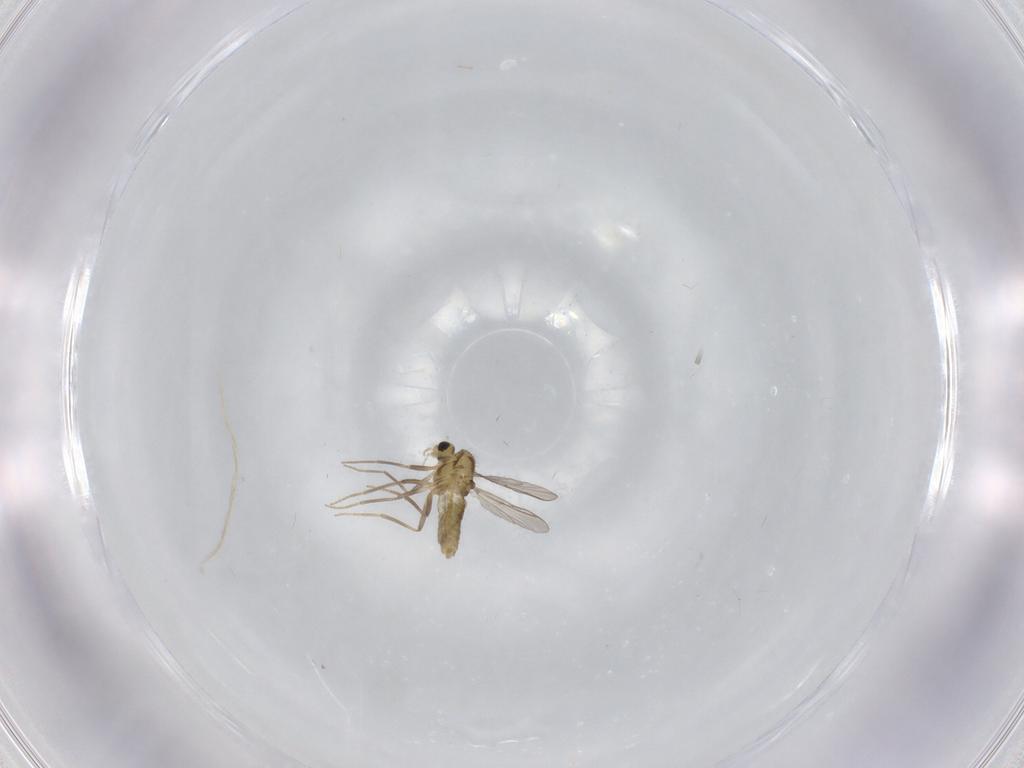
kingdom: Animalia
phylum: Arthropoda
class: Insecta
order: Diptera
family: Chironomidae
